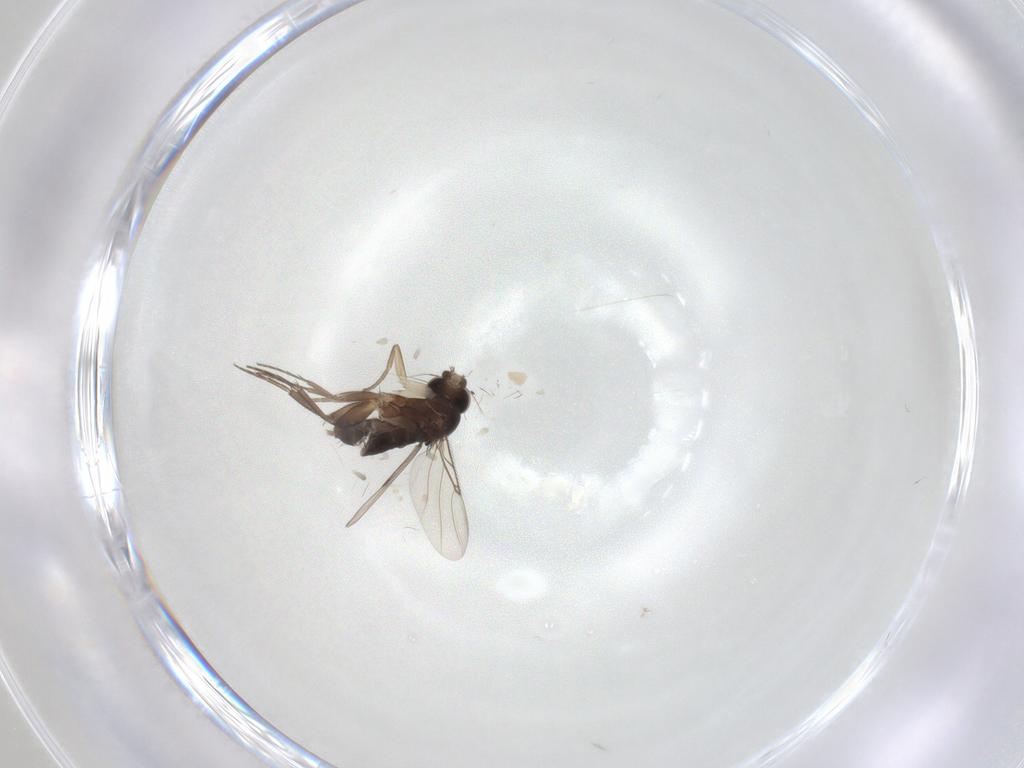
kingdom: Animalia
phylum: Arthropoda
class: Insecta
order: Diptera
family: Phoridae
